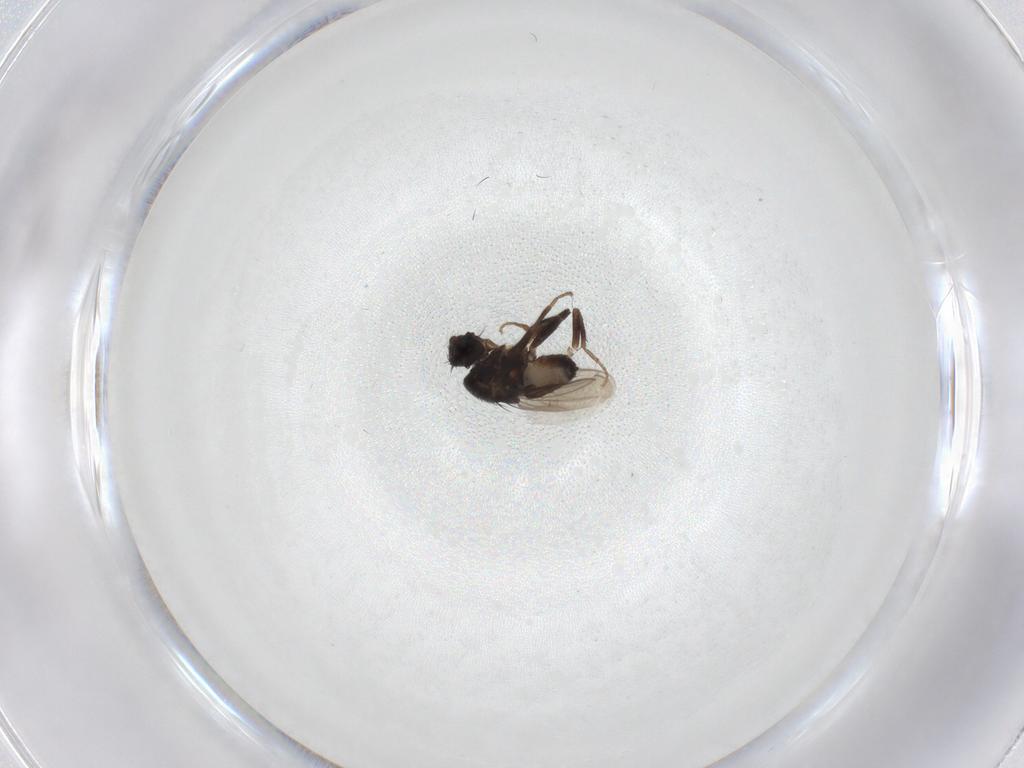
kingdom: Animalia
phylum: Arthropoda
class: Insecta
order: Diptera
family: Sphaeroceridae
